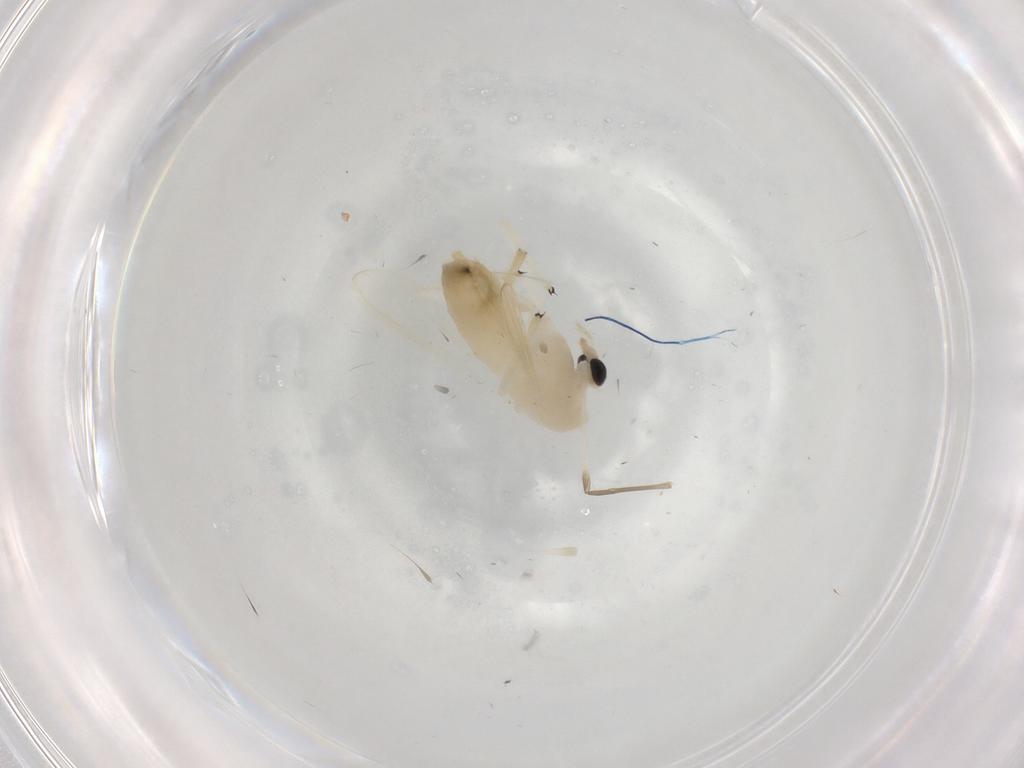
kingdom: Animalia
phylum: Arthropoda
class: Insecta
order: Diptera
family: Chironomidae
